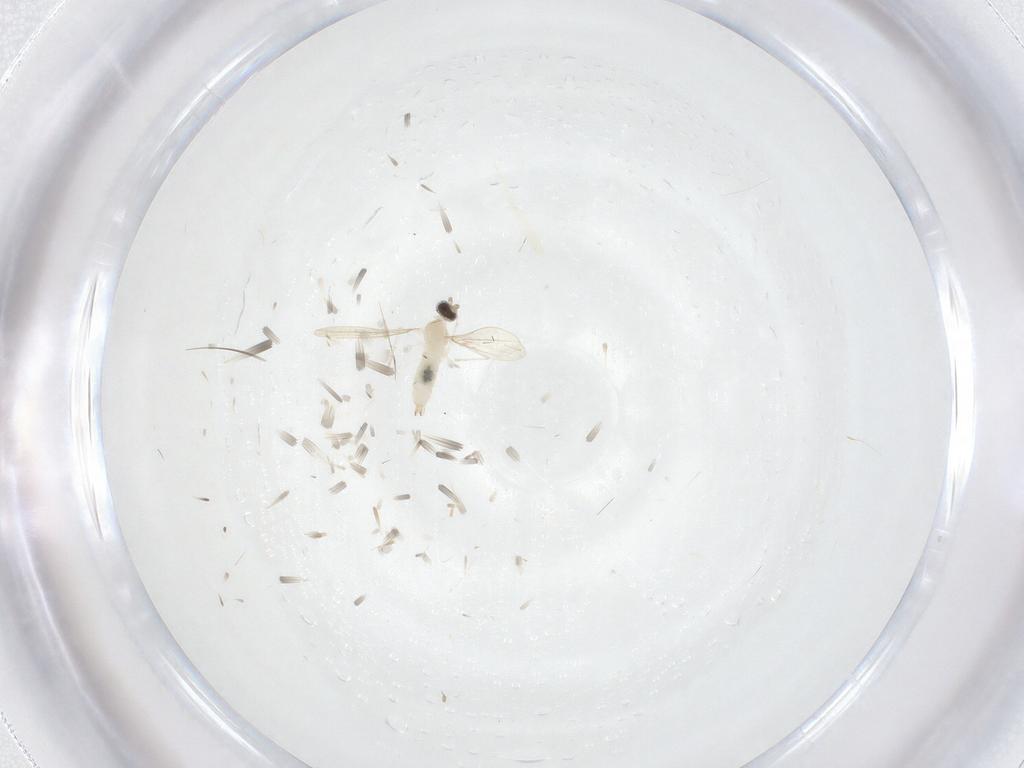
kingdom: Animalia
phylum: Arthropoda
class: Insecta
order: Diptera
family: Cecidomyiidae
